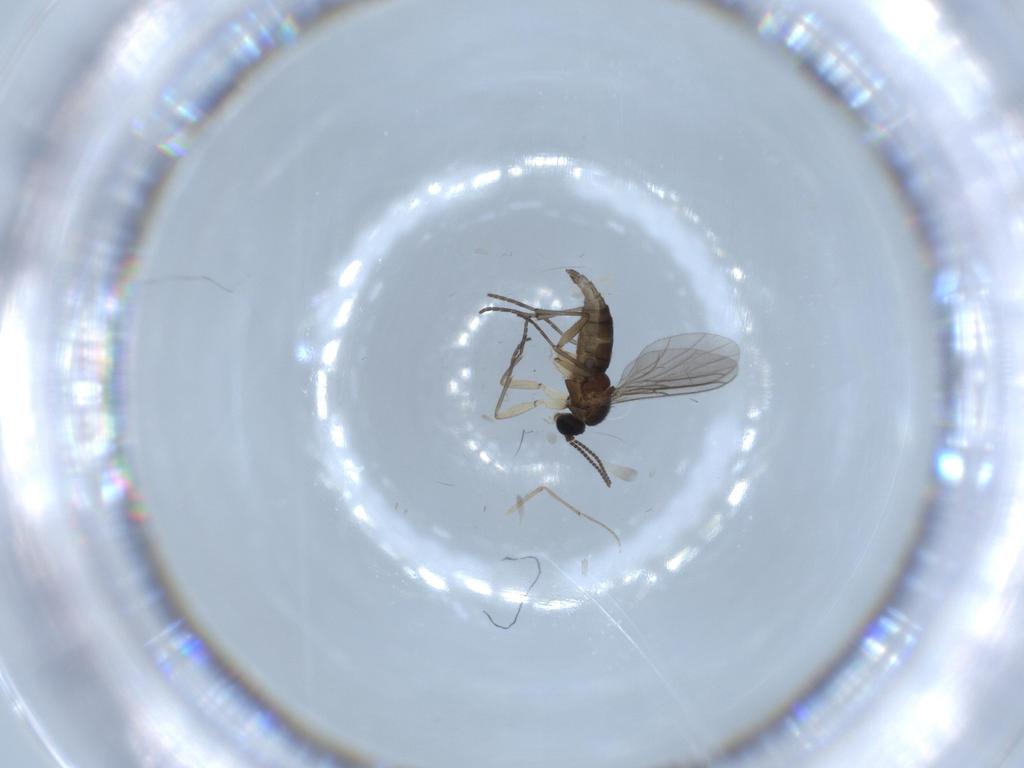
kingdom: Animalia
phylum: Arthropoda
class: Insecta
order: Diptera
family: Sciaridae
